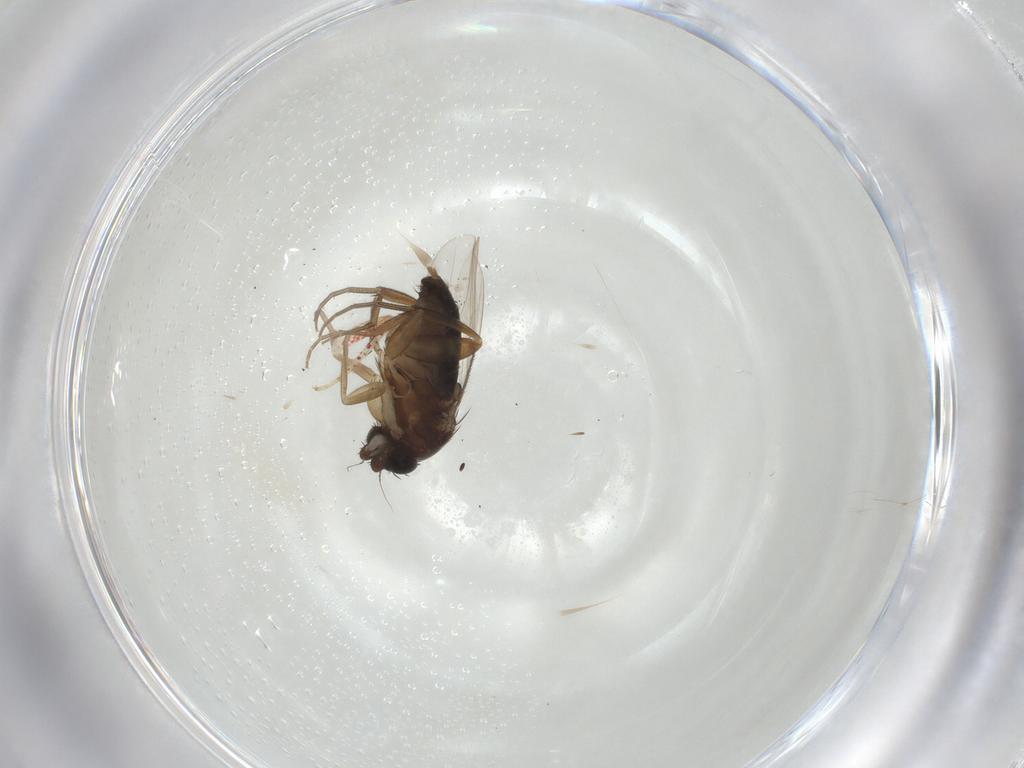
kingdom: Animalia
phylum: Arthropoda
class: Insecta
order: Diptera
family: Phoridae
